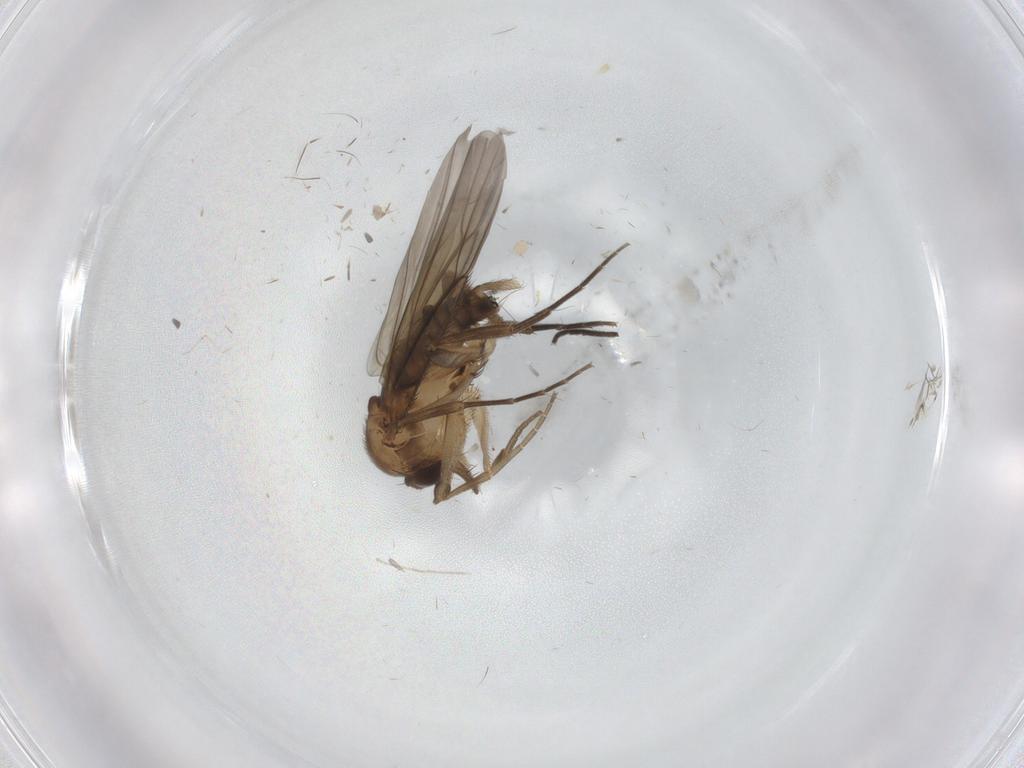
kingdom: Animalia
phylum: Arthropoda
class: Insecta
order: Diptera
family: Phoridae
